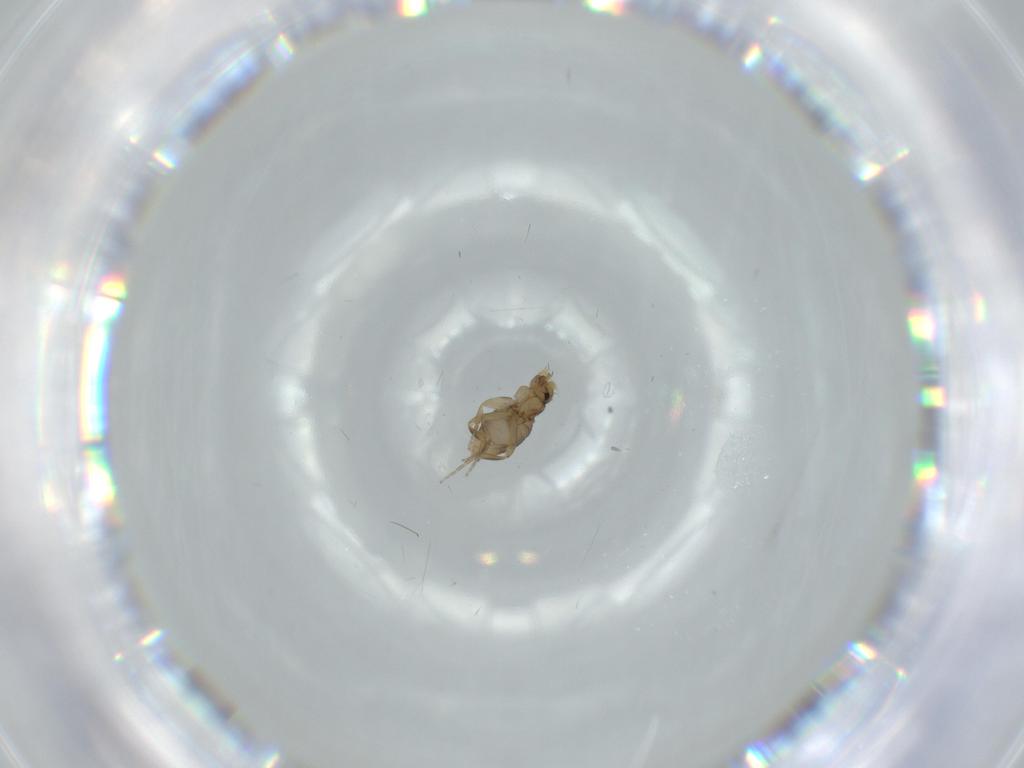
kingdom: Animalia
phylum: Arthropoda
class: Insecta
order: Diptera
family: Phoridae
